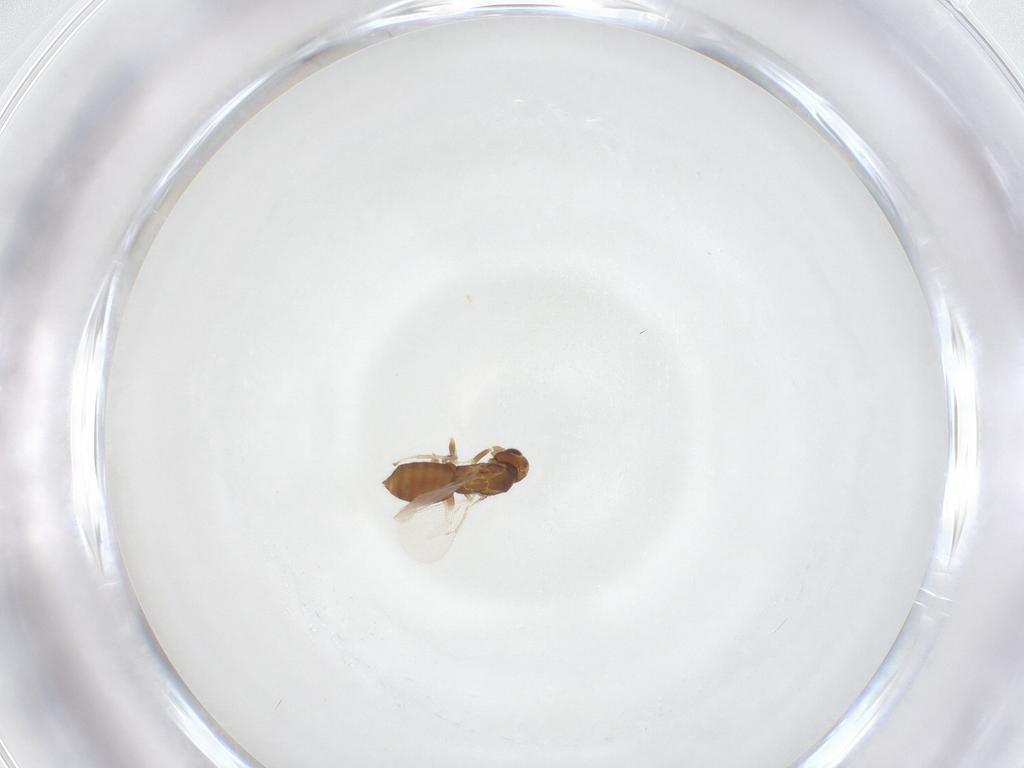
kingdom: Animalia
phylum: Arthropoda
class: Insecta
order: Hymenoptera
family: Eulophidae
